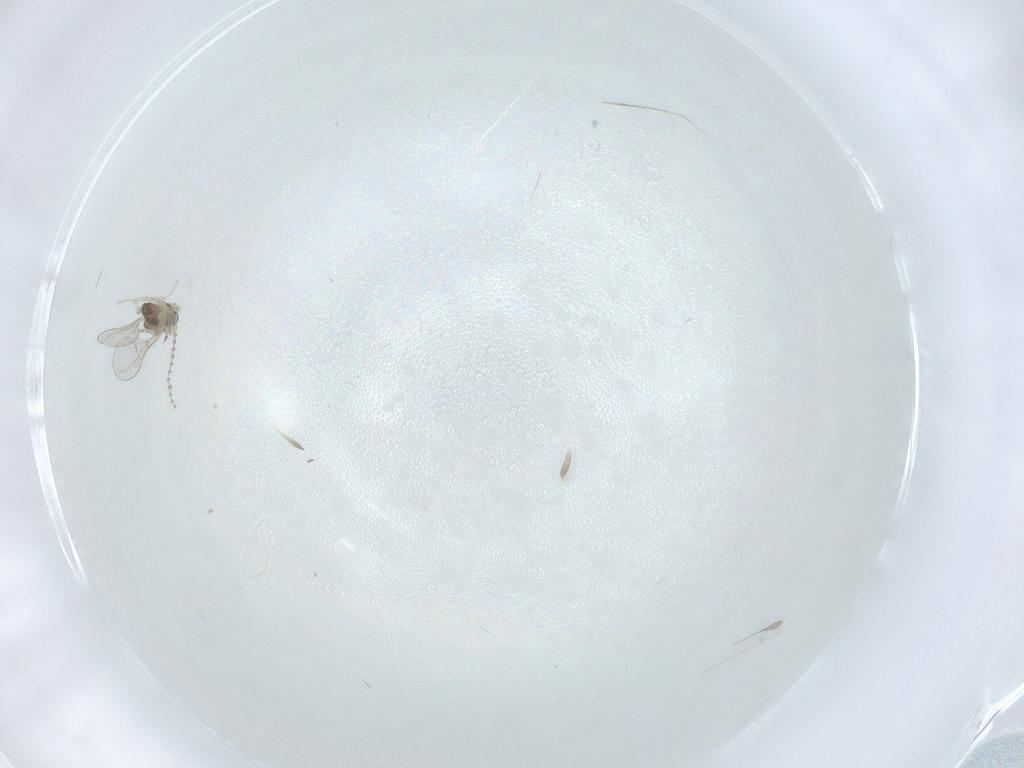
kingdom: Animalia
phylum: Arthropoda
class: Insecta
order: Diptera
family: Cecidomyiidae
